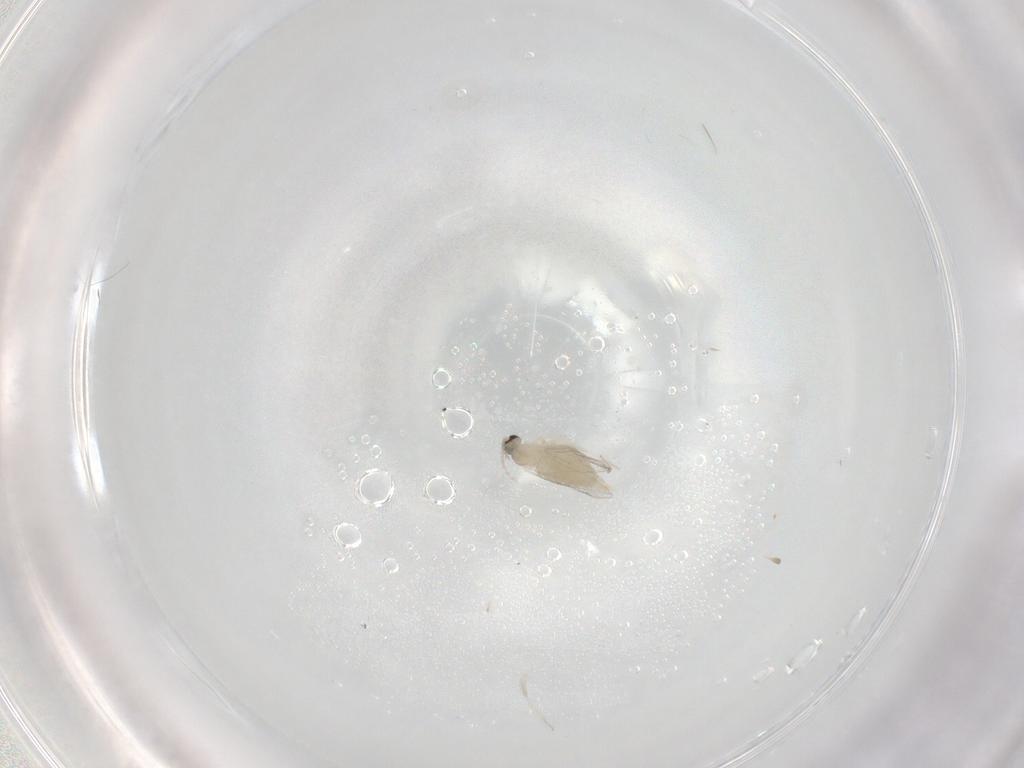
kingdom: Animalia
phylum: Arthropoda
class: Insecta
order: Diptera
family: Cecidomyiidae
